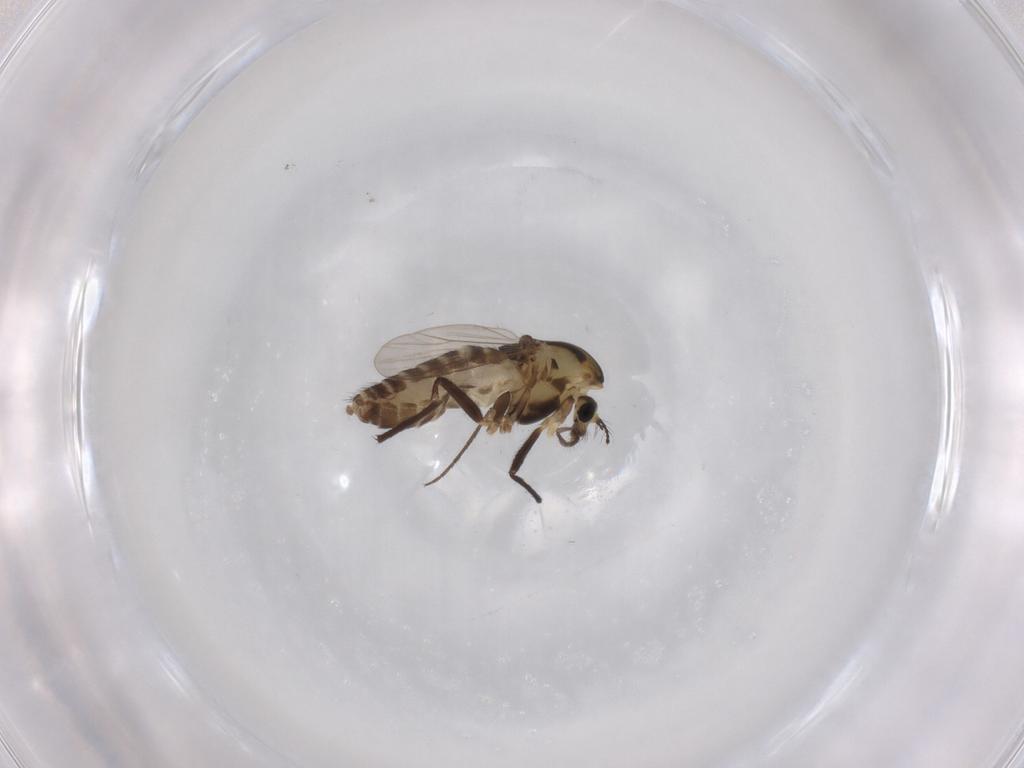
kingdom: Animalia
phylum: Arthropoda
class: Insecta
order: Diptera
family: Chironomidae
